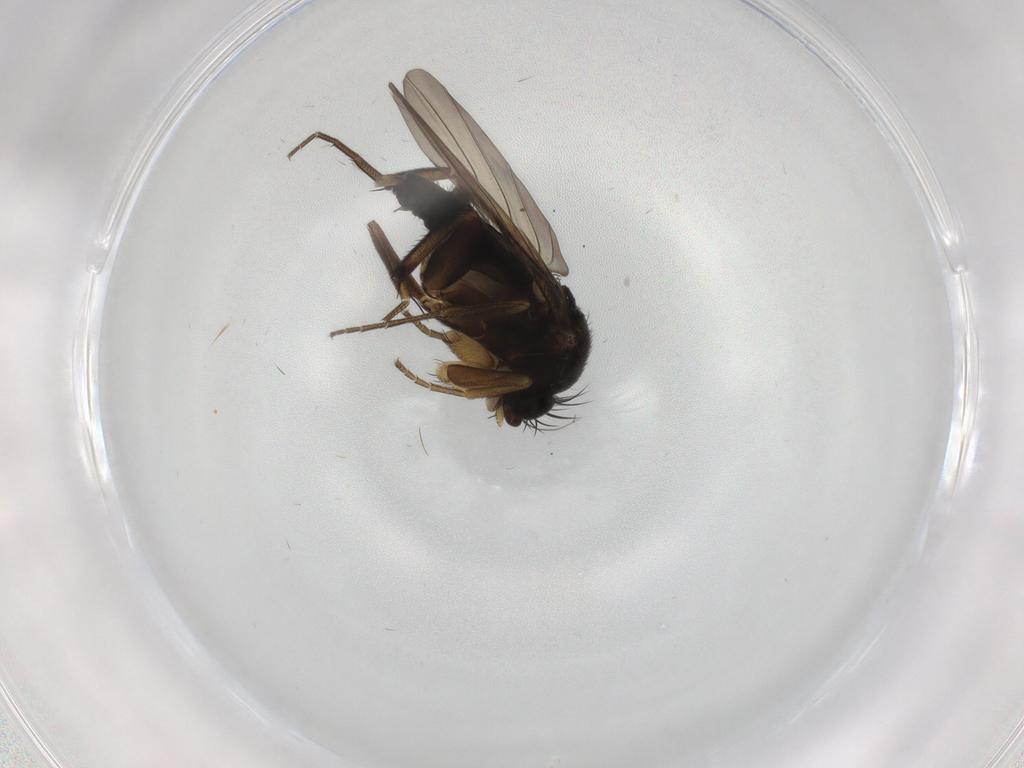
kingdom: Animalia
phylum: Arthropoda
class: Insecta
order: Diptera
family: Phoridae
